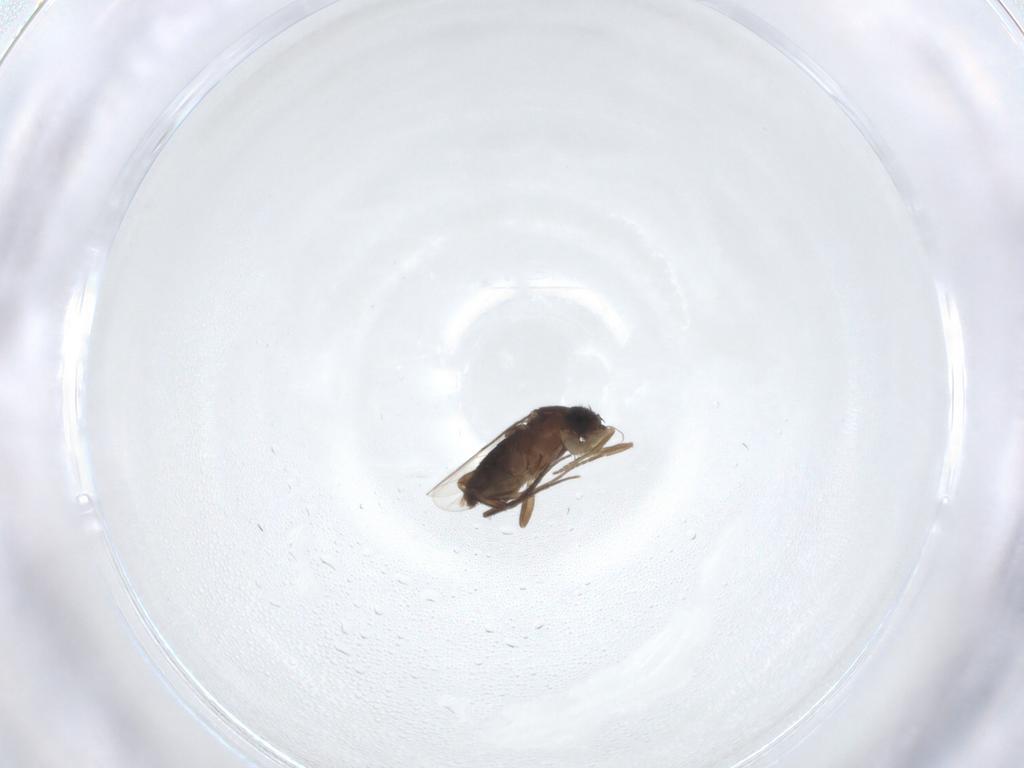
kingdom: Animalia
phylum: Arthropoda
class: Insecta
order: Diptera
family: Phoridae
